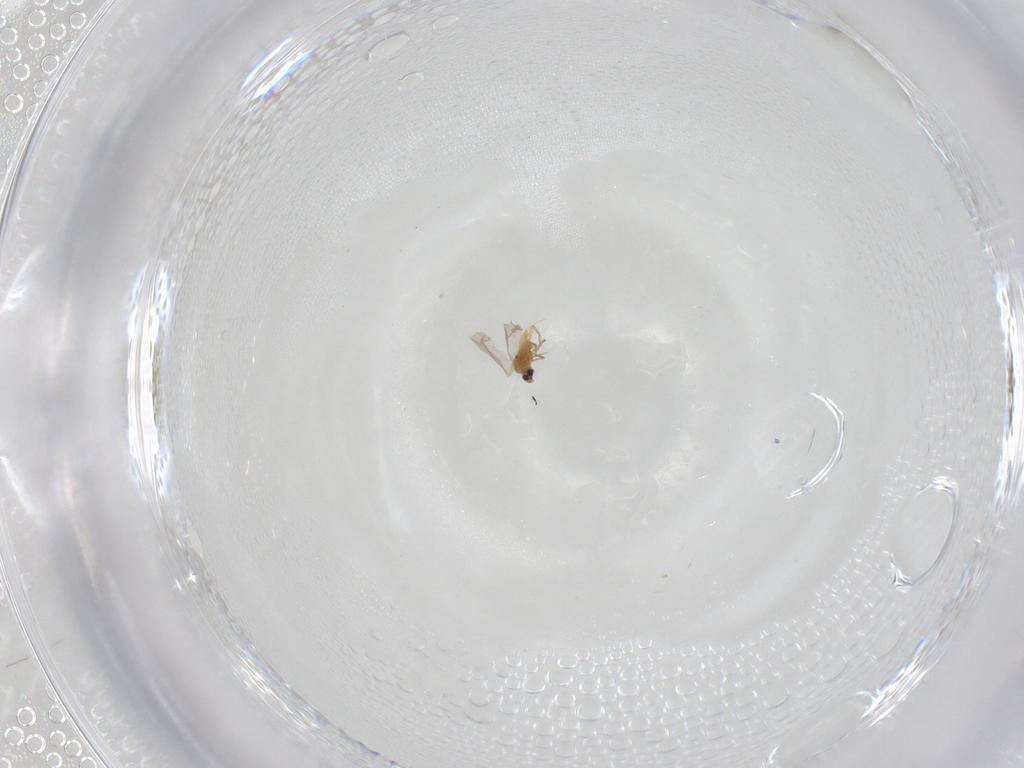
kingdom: Animalia
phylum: Arthropoda
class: Insecta
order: Hemiptera
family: Diaspididae
